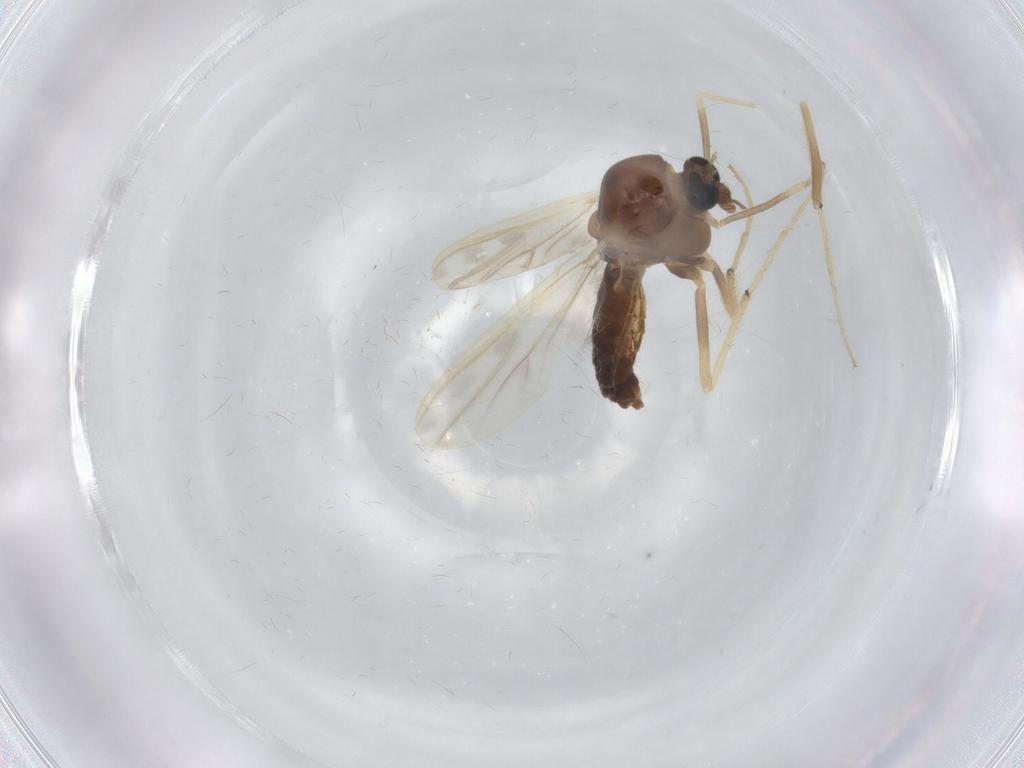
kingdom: Animalia
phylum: Arthropoda
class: Insecta
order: Diptera
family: Chironomidae
